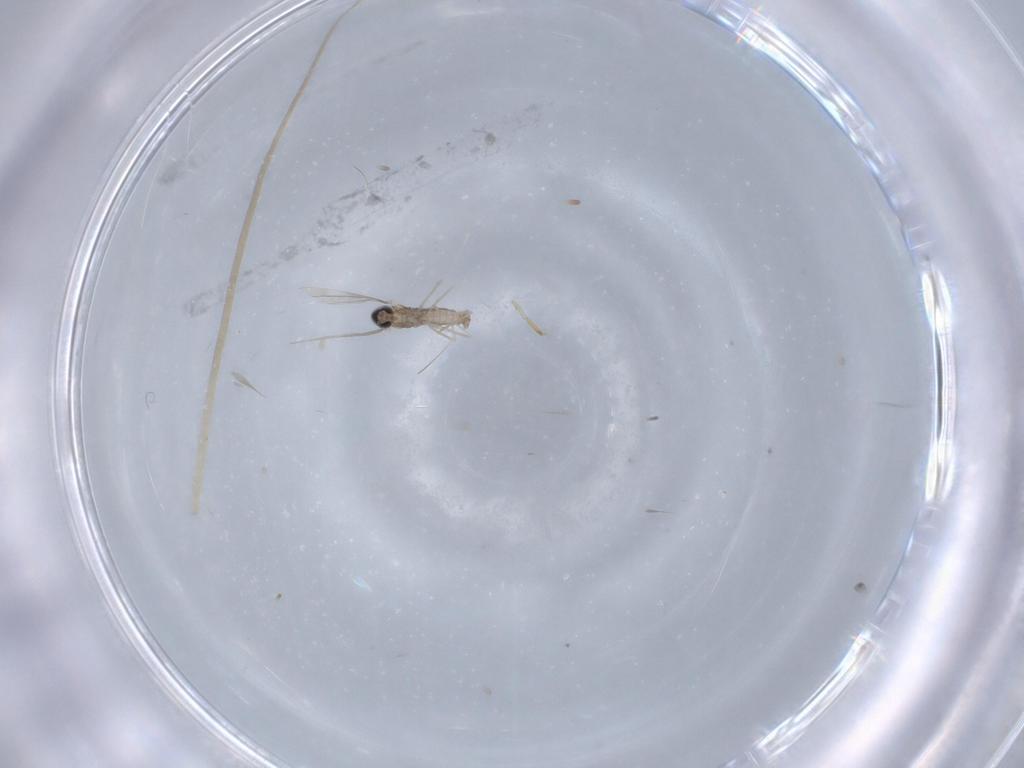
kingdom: Animalia
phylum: Arthropoda
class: Insecta
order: Diptera
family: Cecidomyiidae
